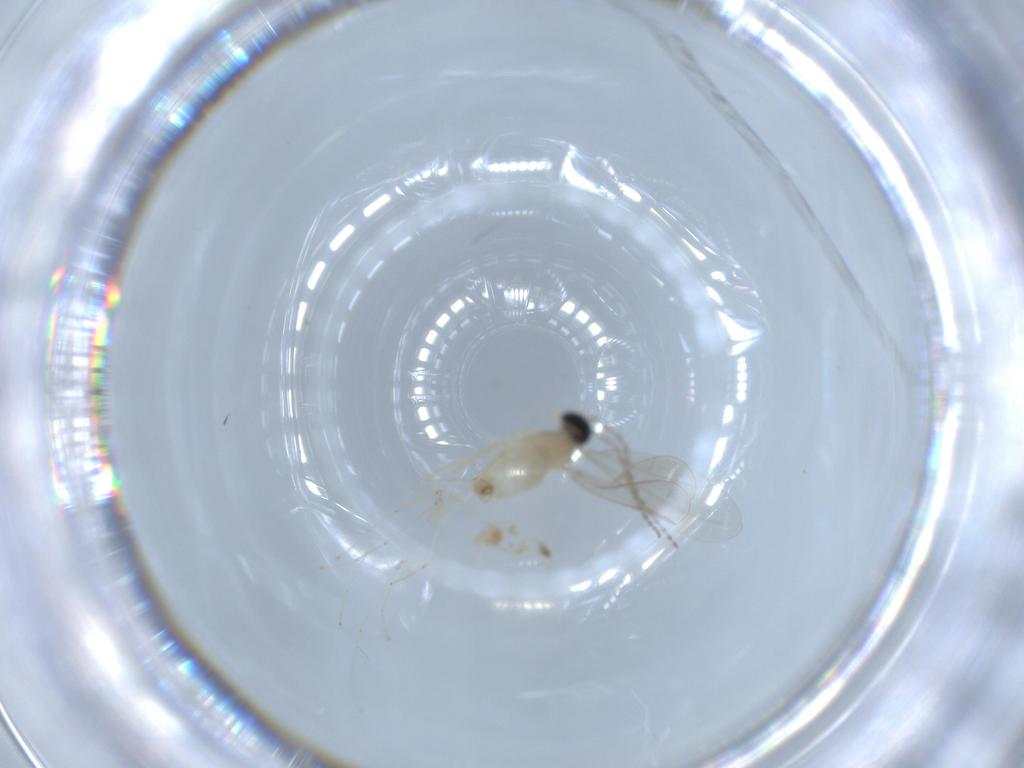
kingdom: Animalia
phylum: Arthropoda
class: Insecta
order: Diptera
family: Cecidomyiidae
